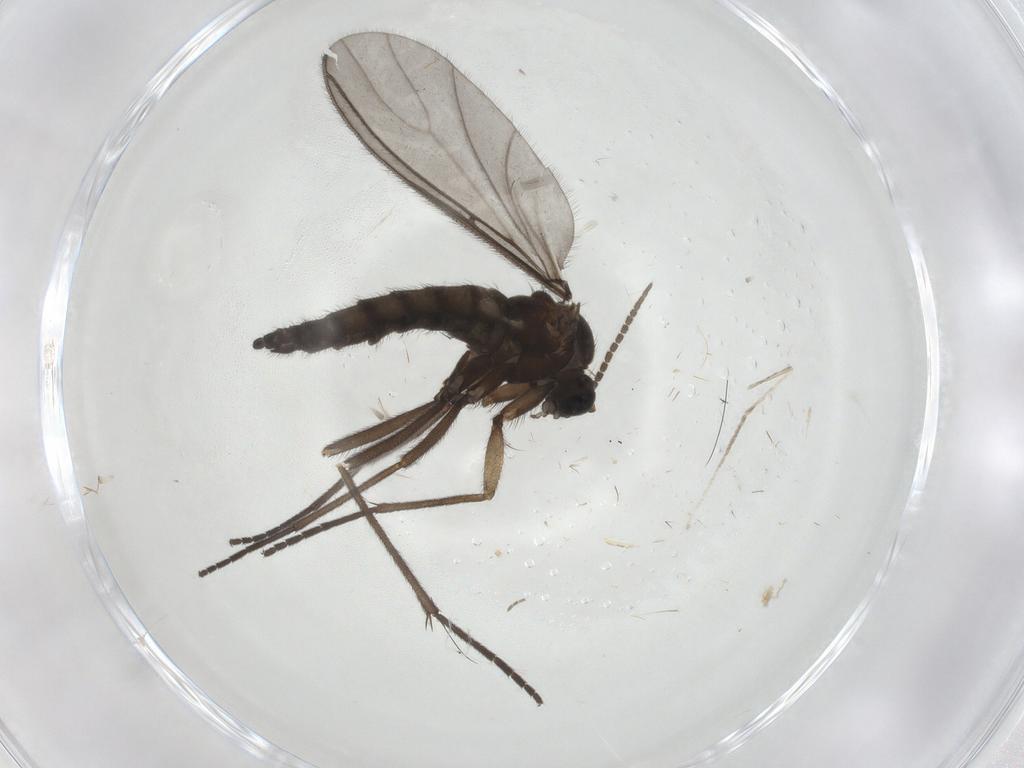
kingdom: Animalia
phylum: Arthropoda
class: Insecta
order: Diptera
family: Sciaridae
